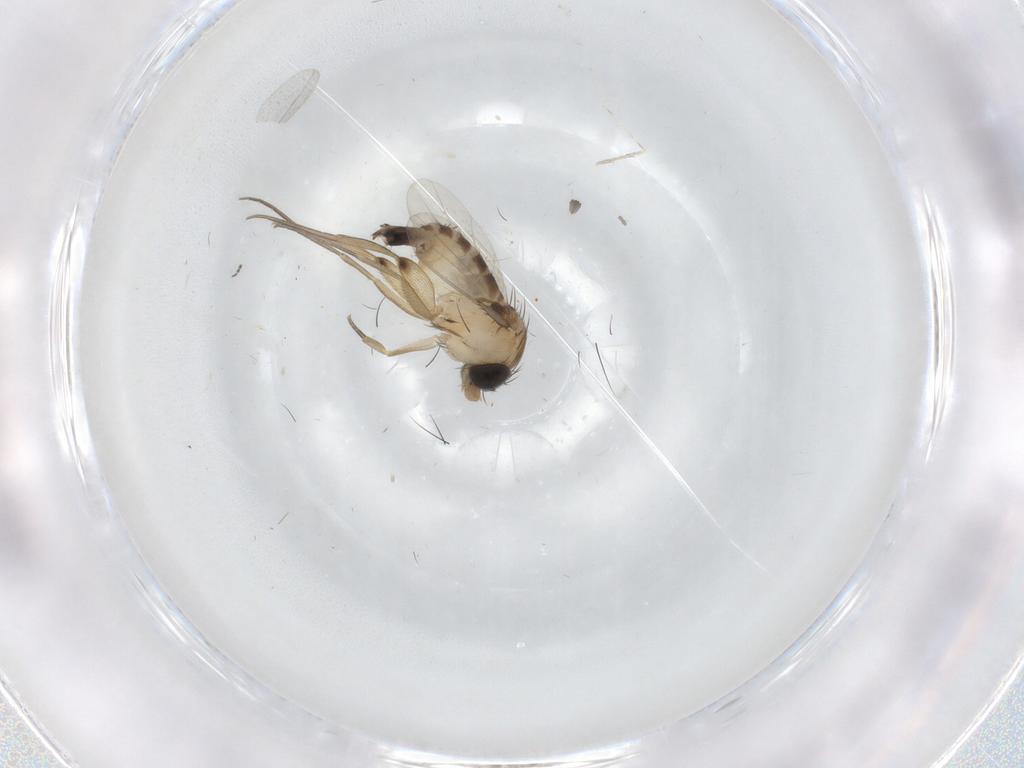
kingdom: Animalia
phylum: Arthropoda
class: Insecta
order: Diptera
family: Phoridae
